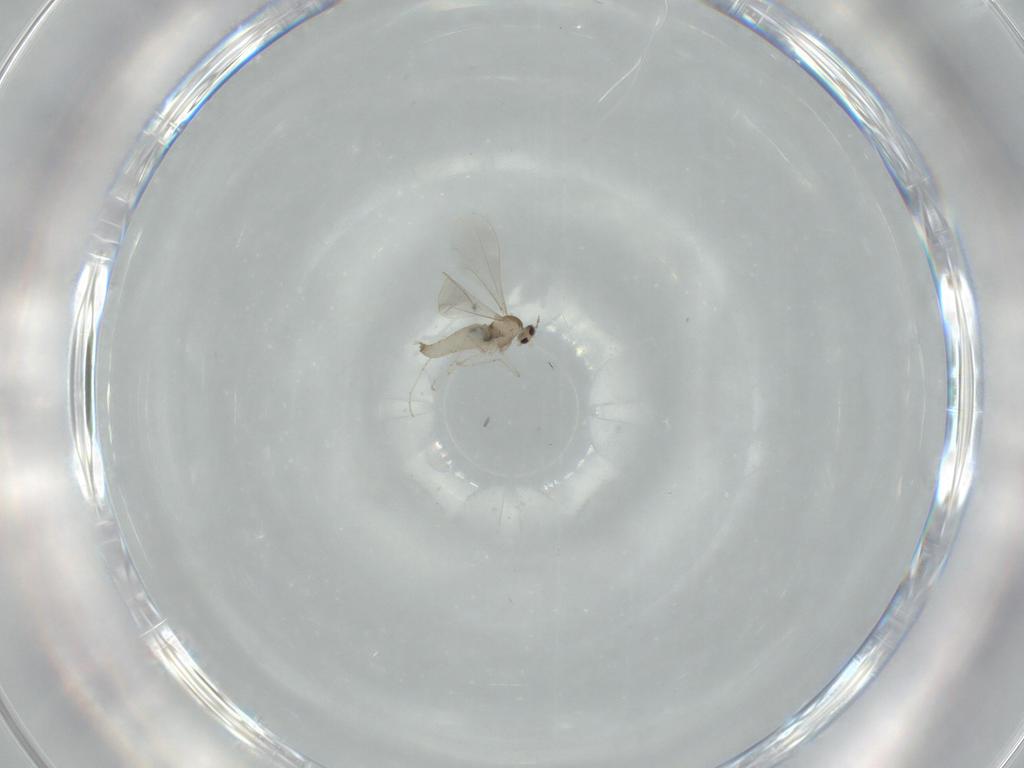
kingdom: Animalia
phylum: Arthropoda
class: Insecta
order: Diptera
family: Cecidomyiidae
